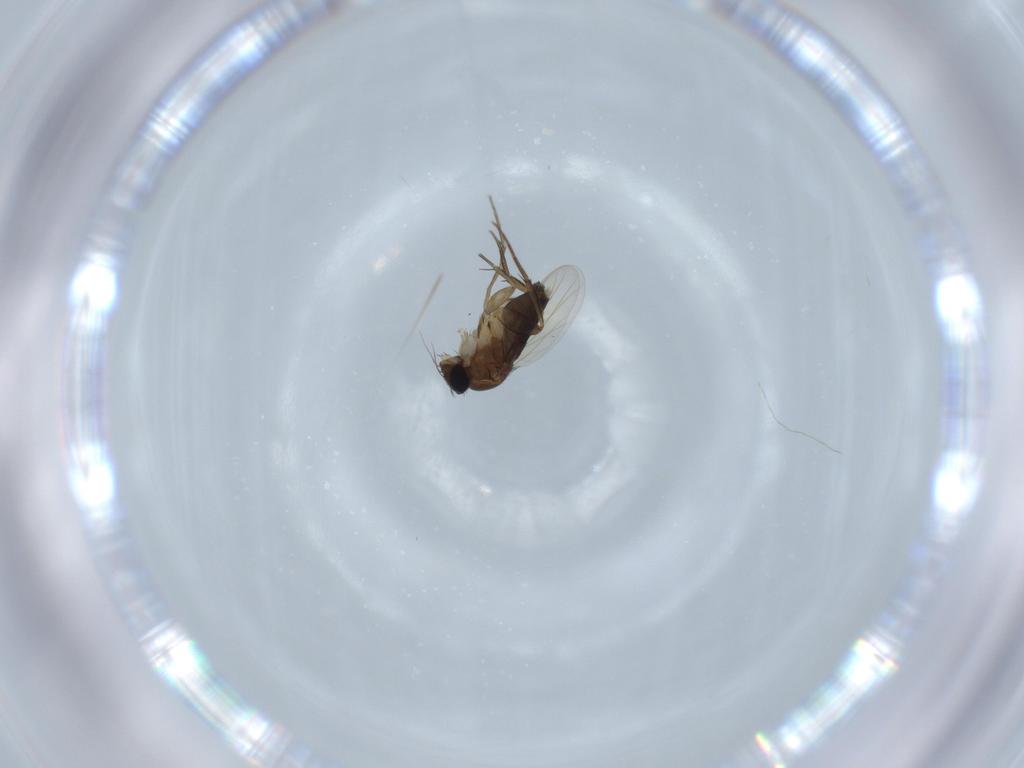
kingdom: Animalia
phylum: Arthropoda
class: Insecta
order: Diptera
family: Phoridae
